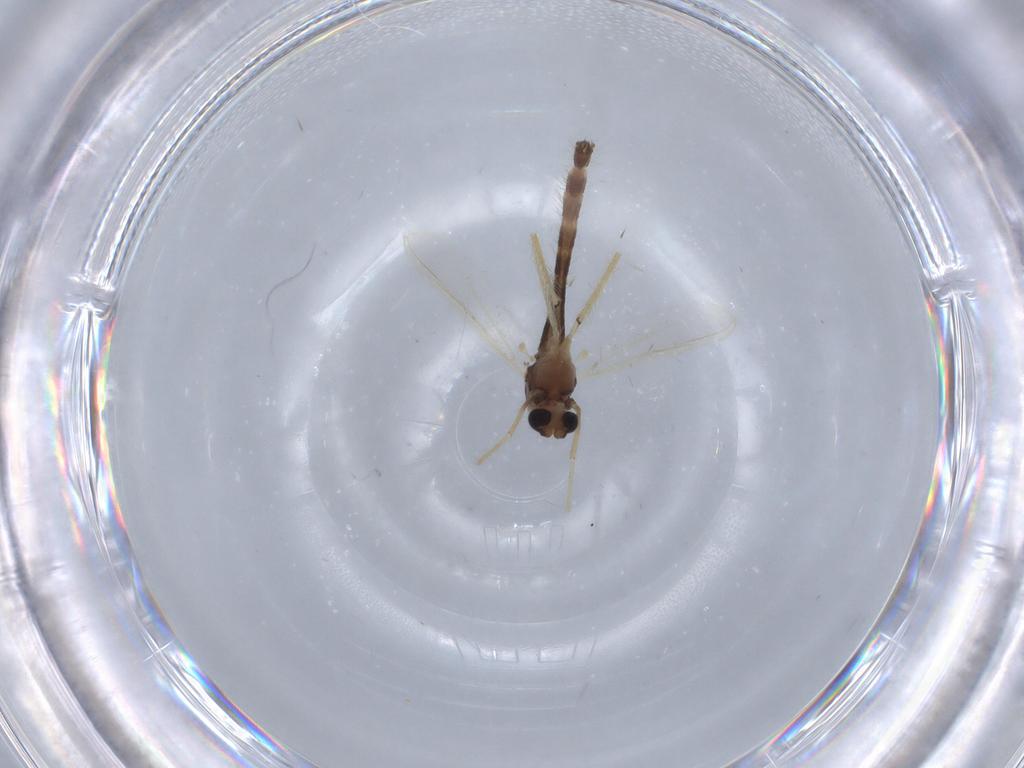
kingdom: Animalia
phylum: Arthropoda
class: Insecta
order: Diptera
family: Chironomidae
